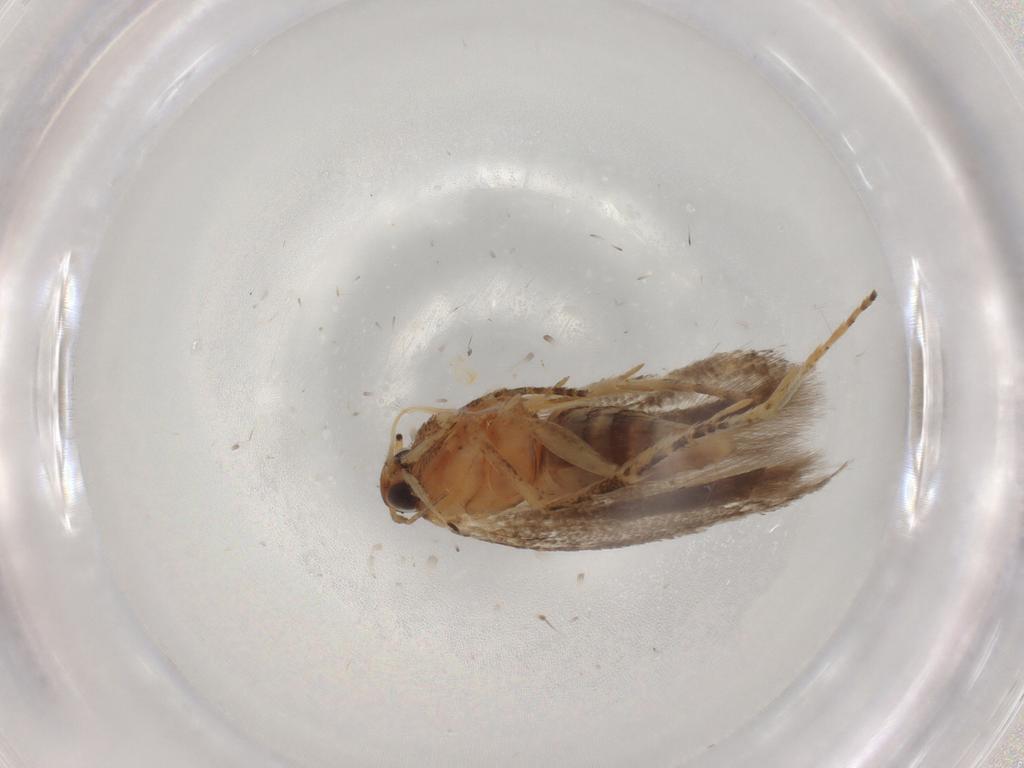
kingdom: Animalia
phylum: Arthropoda
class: Insecta
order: Lepidoptera
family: Gelechiidae
